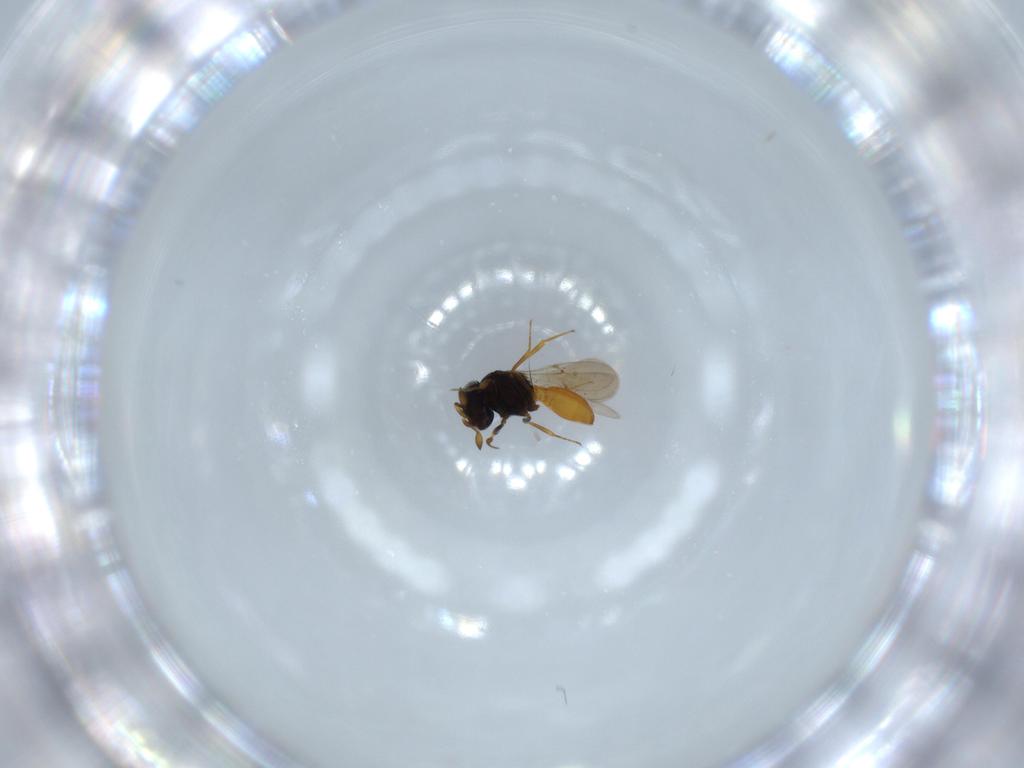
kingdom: Animalia
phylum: Arthropoda
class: Insecta
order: Hymenoptera
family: Scelionidae
